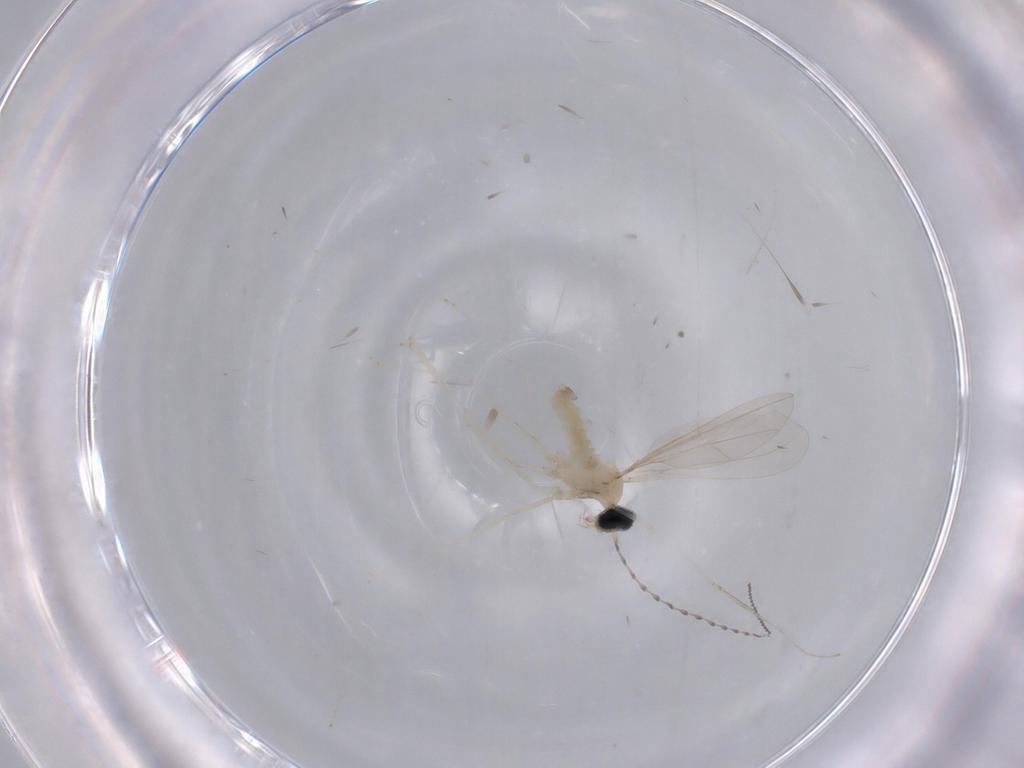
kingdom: Animalia
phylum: Arthropoda
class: Insecta
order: Diptera
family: Cecidomyiidae
